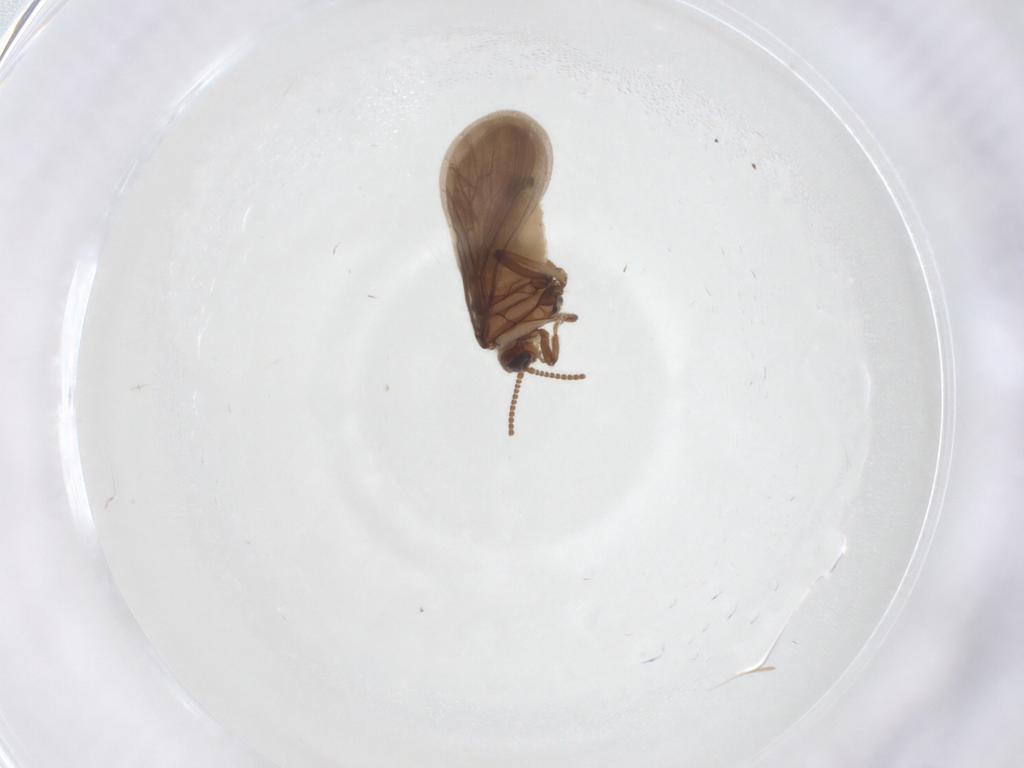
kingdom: Animalia
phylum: Arthropoda
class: Insecta
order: Neuroptera
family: Coniopterygidae
